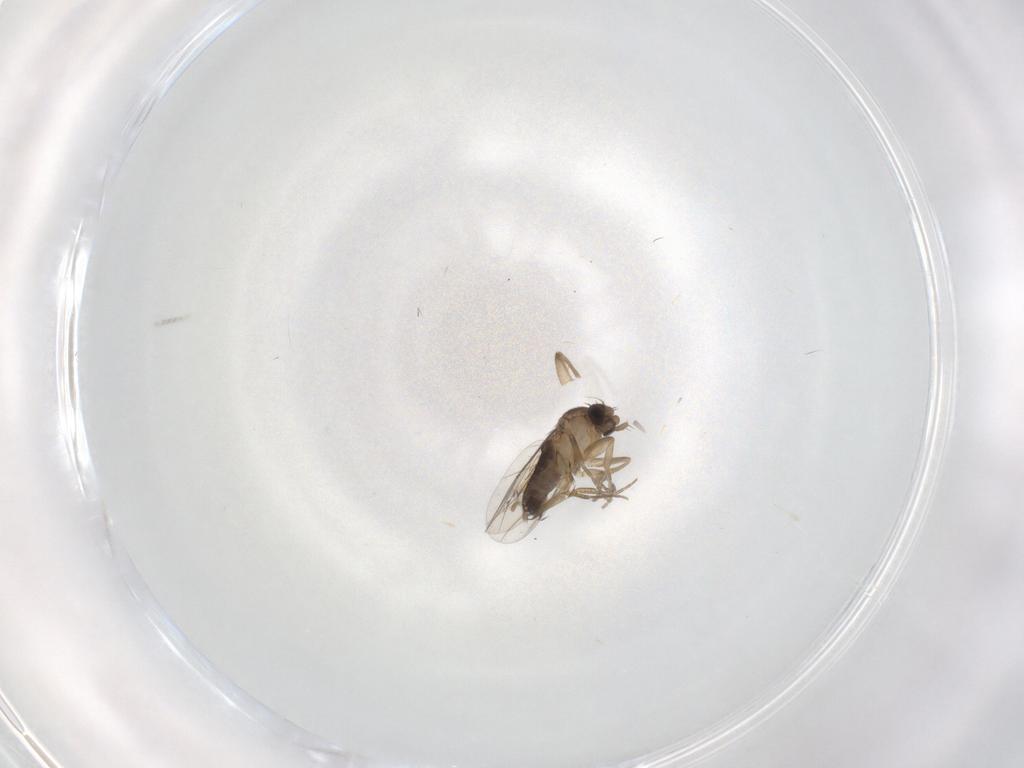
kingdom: Animalia
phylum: Arthropoda
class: Insecta
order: Diptera
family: Phoridae
